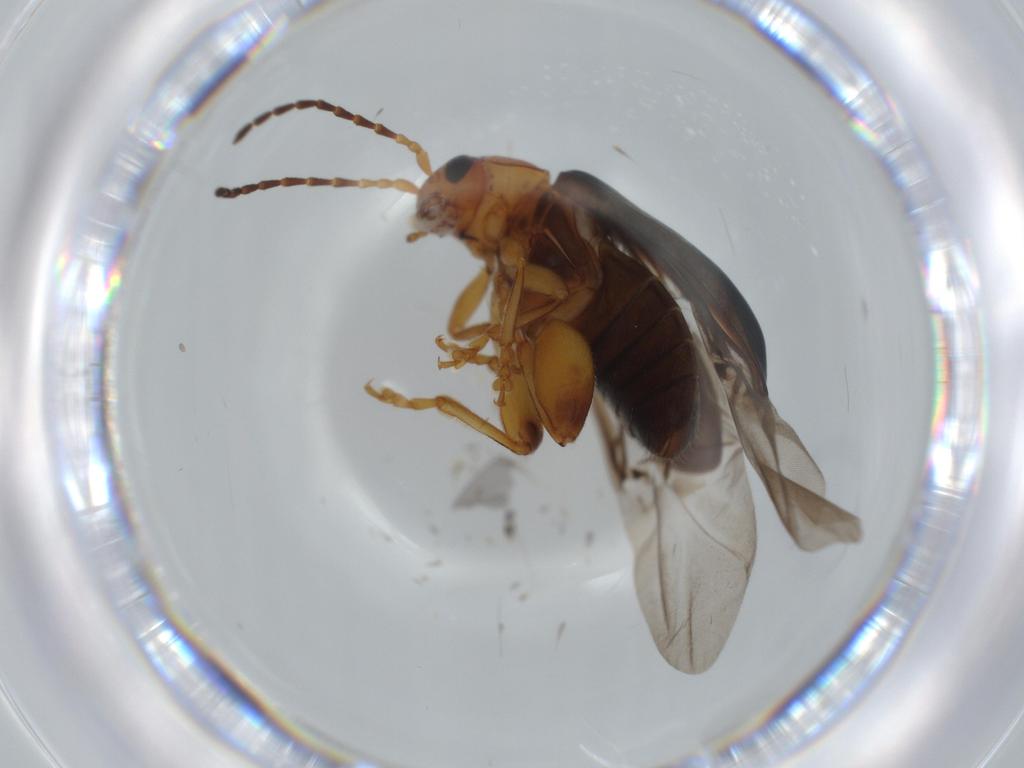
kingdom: Animalia
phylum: Arthropoda
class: Insecta
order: Coleoptera
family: Chrysomelidae
